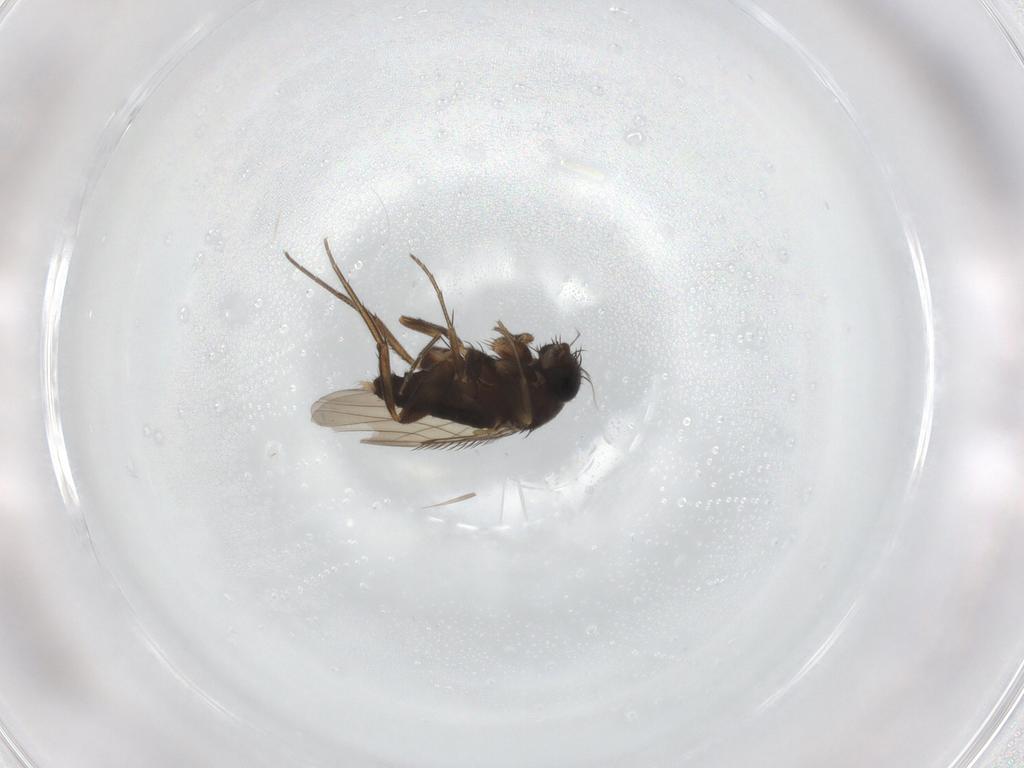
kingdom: Animalia
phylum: Arthropoda
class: Insecta
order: Diptera
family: Phoridae
